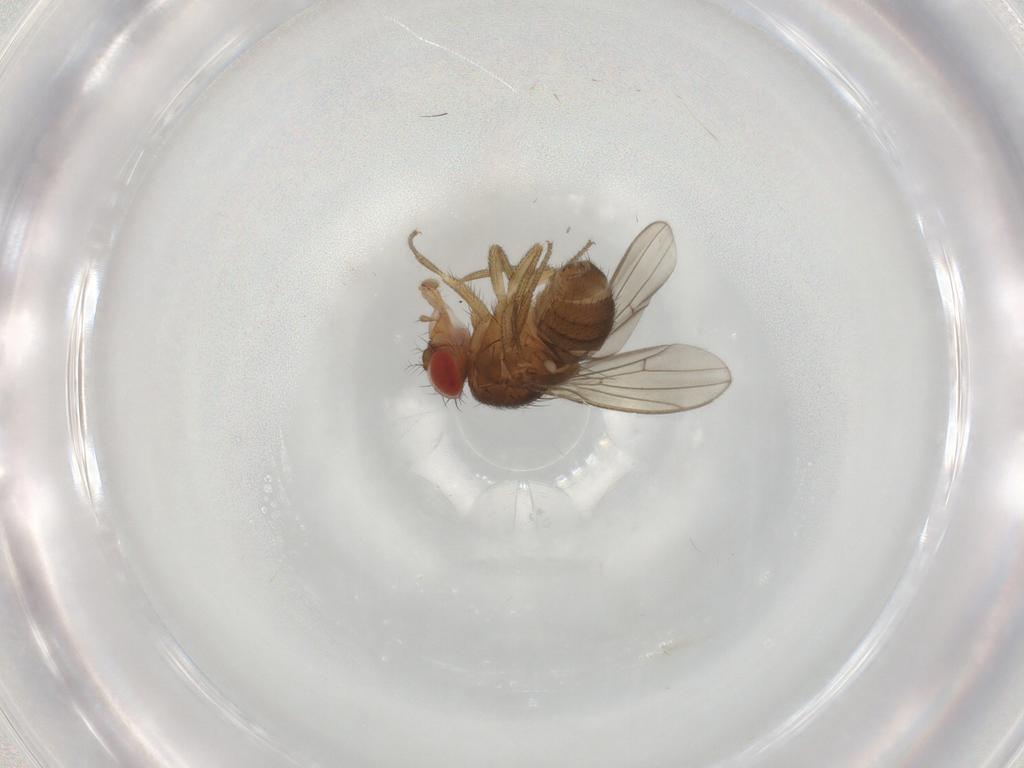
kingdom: Animalia
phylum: Arthropoda
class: Insecta
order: Diptera
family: Drosophilidae
